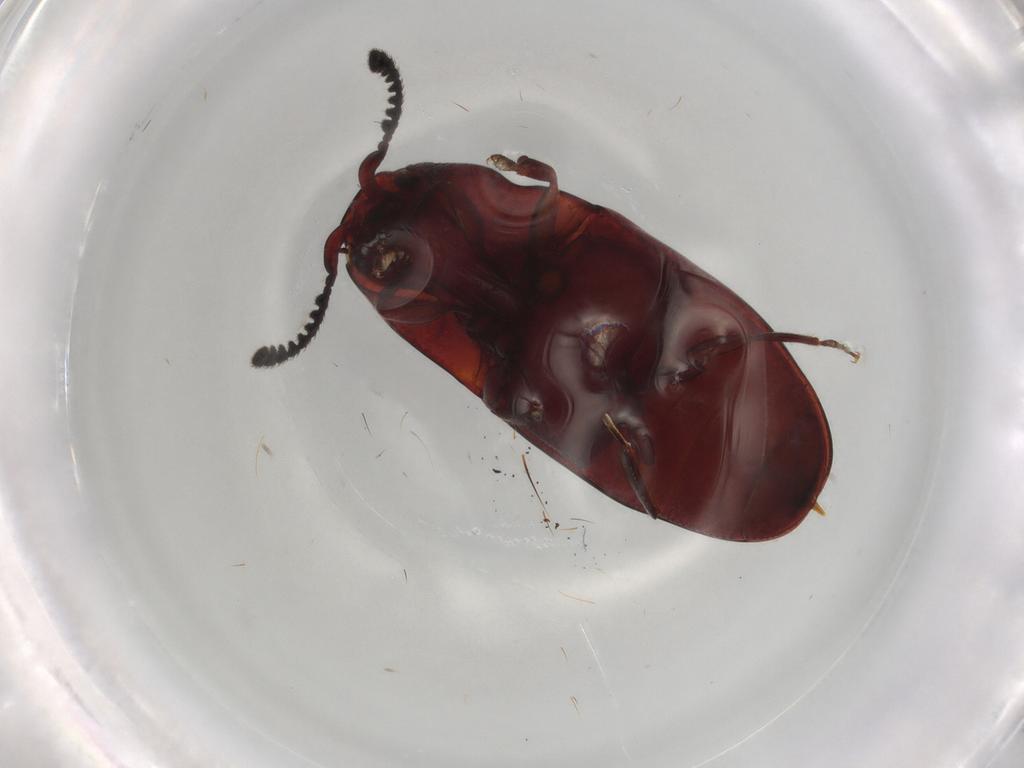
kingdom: Animalia
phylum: Arthropoda
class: Insecta
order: Coleoptera
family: Elateridae
